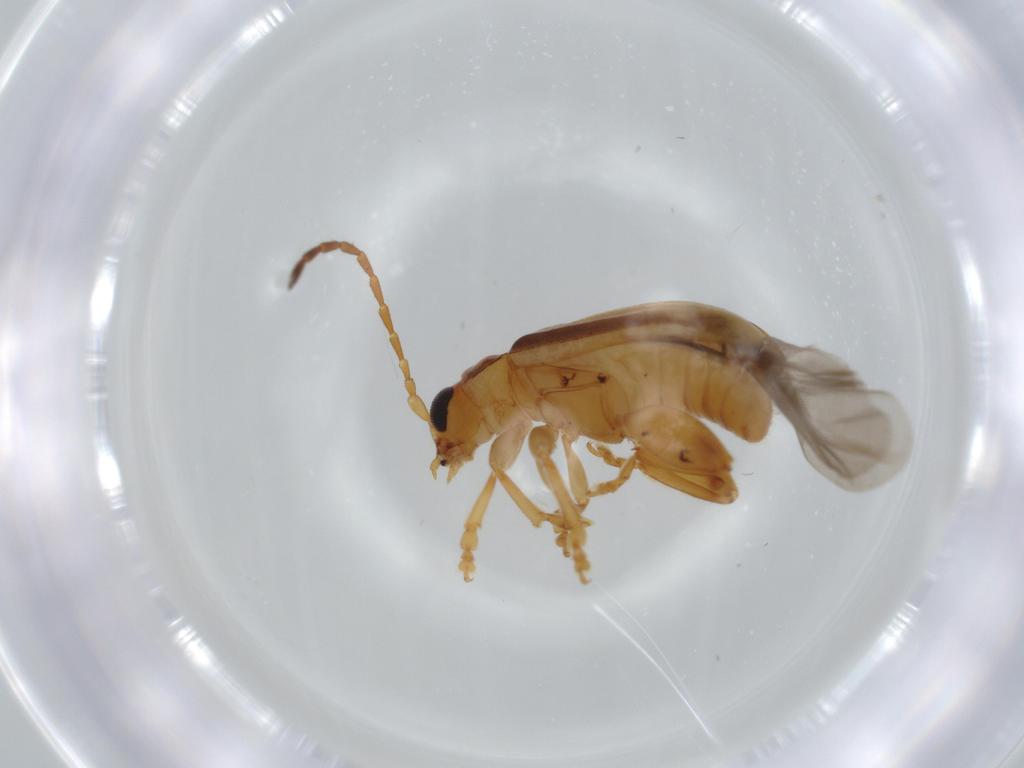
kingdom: Animalia
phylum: Arthropoda
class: Insecta
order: Coleoptera
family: Chrysomelidae
